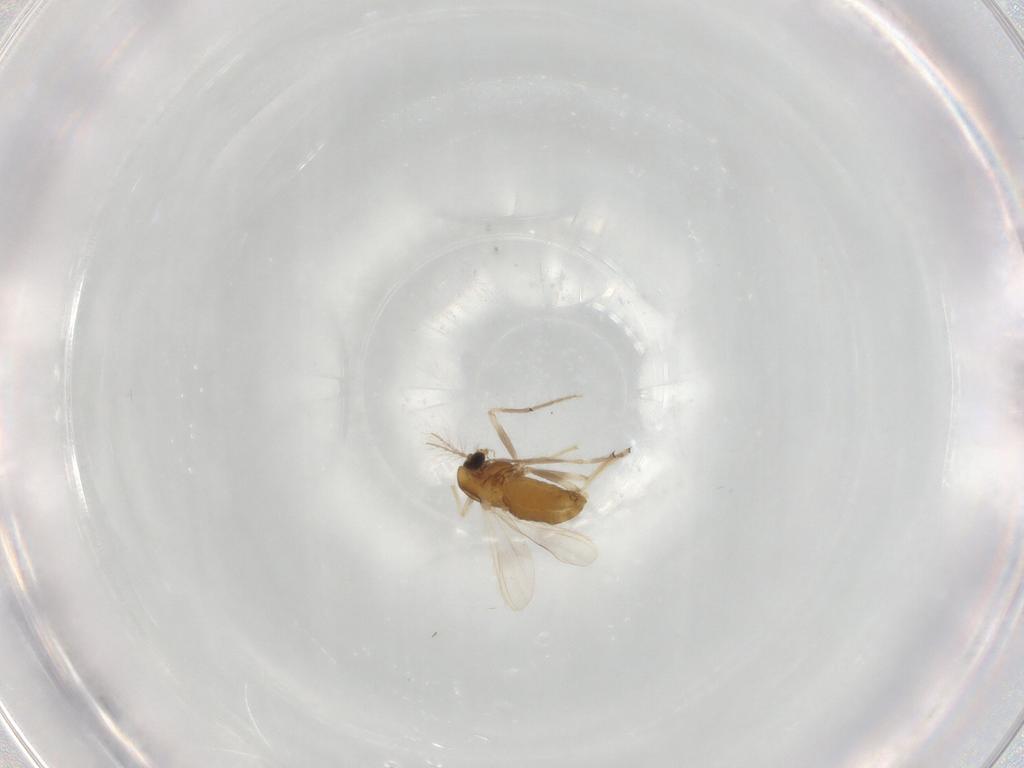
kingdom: Animalia
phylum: Arthropoda
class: Insecta
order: Diptera
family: Chironomidae
